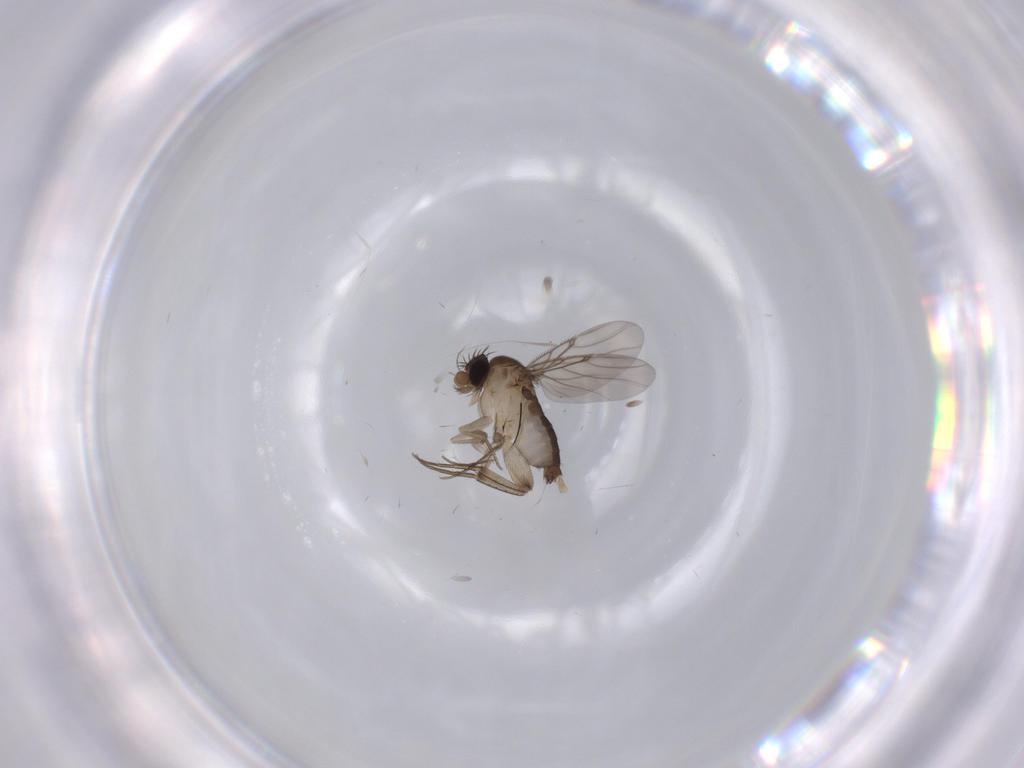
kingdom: Animalia
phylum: Arthropoda
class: Insecta
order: Diptera
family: Phoridae
